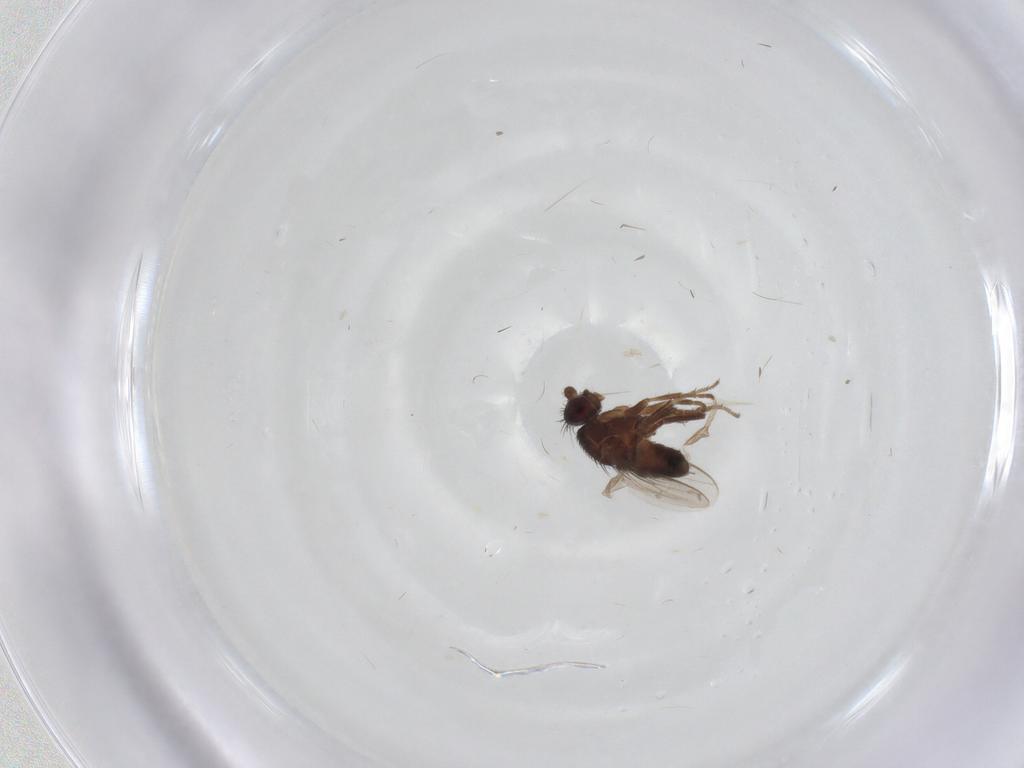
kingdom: Animalia
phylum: Arthropoda
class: Insecta
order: Diptera
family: Sphaeroceridae
